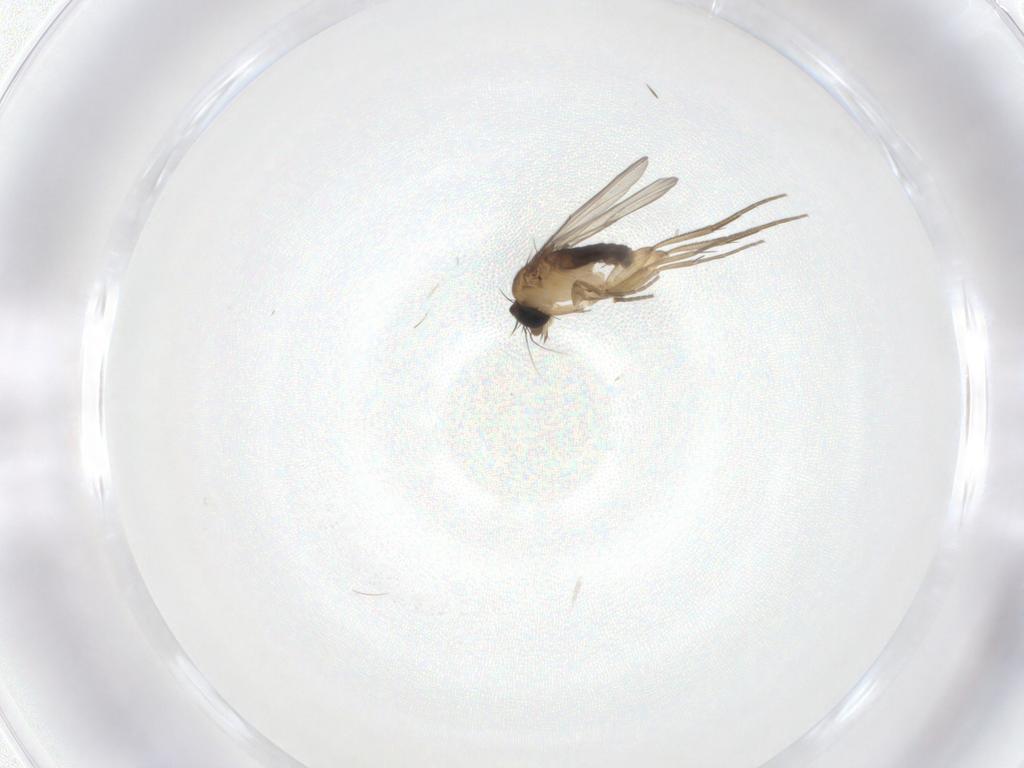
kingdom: Animalia
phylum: Arthropoda
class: Insecta
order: Diptera
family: Phoridae
